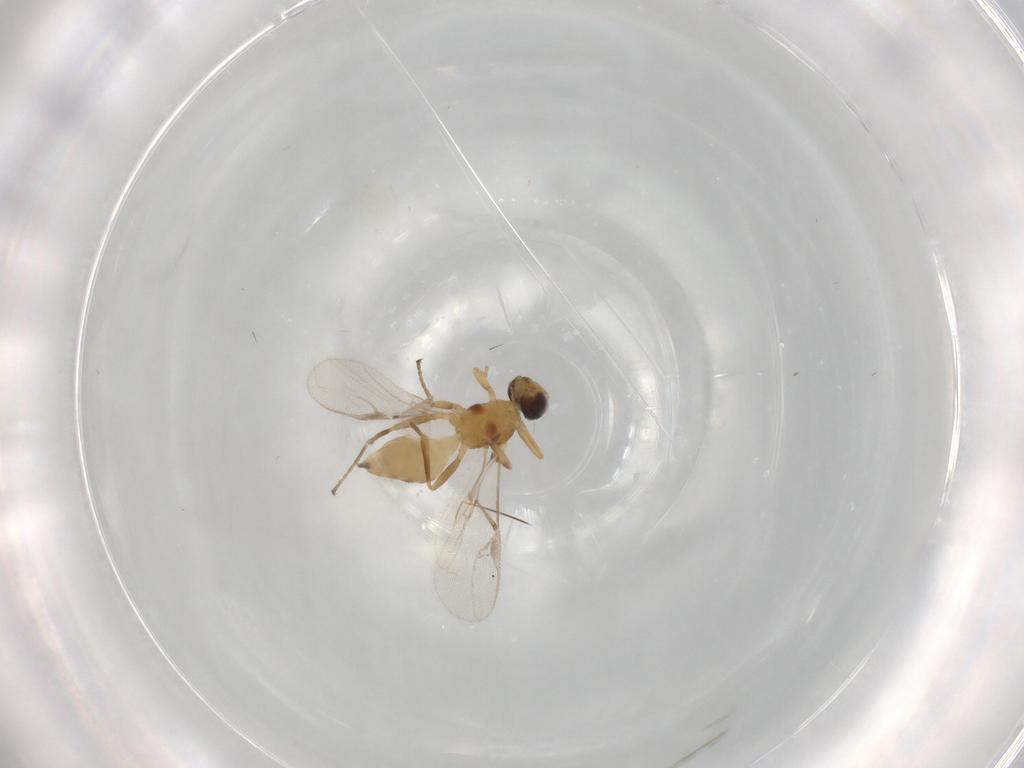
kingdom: Animalia
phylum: Arthropoda
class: Insecta
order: Hymenoptera
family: Braconidae
